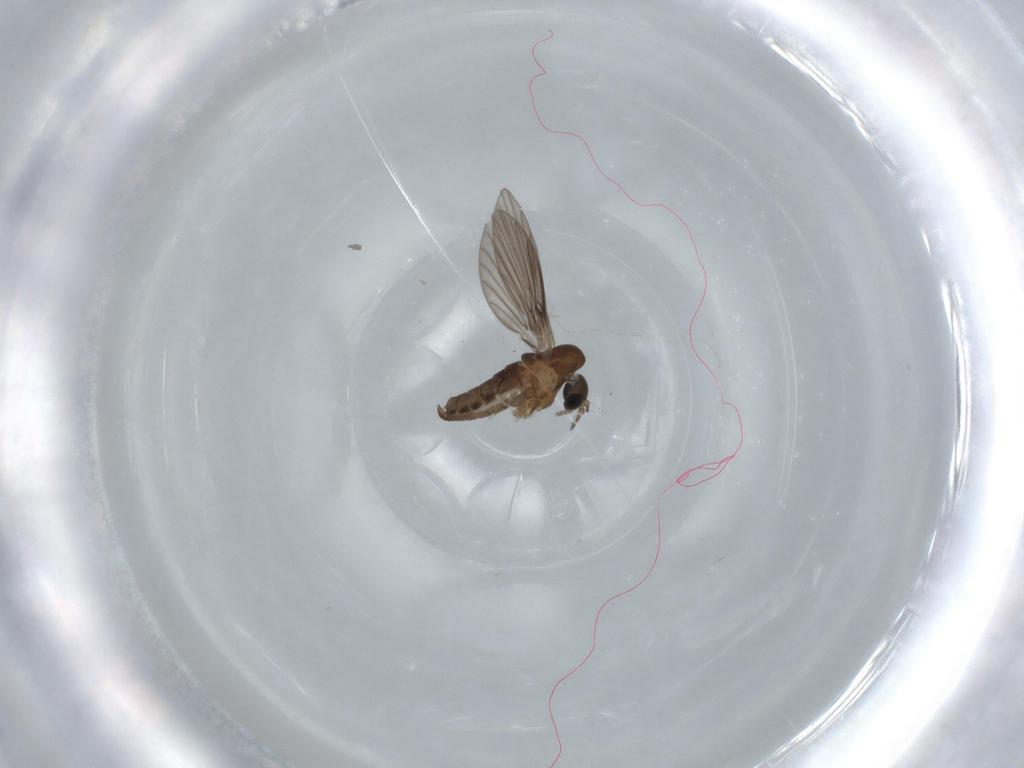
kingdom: Animalia
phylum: Arthropoda
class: Insecta
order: Diptera
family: Psychodidae
